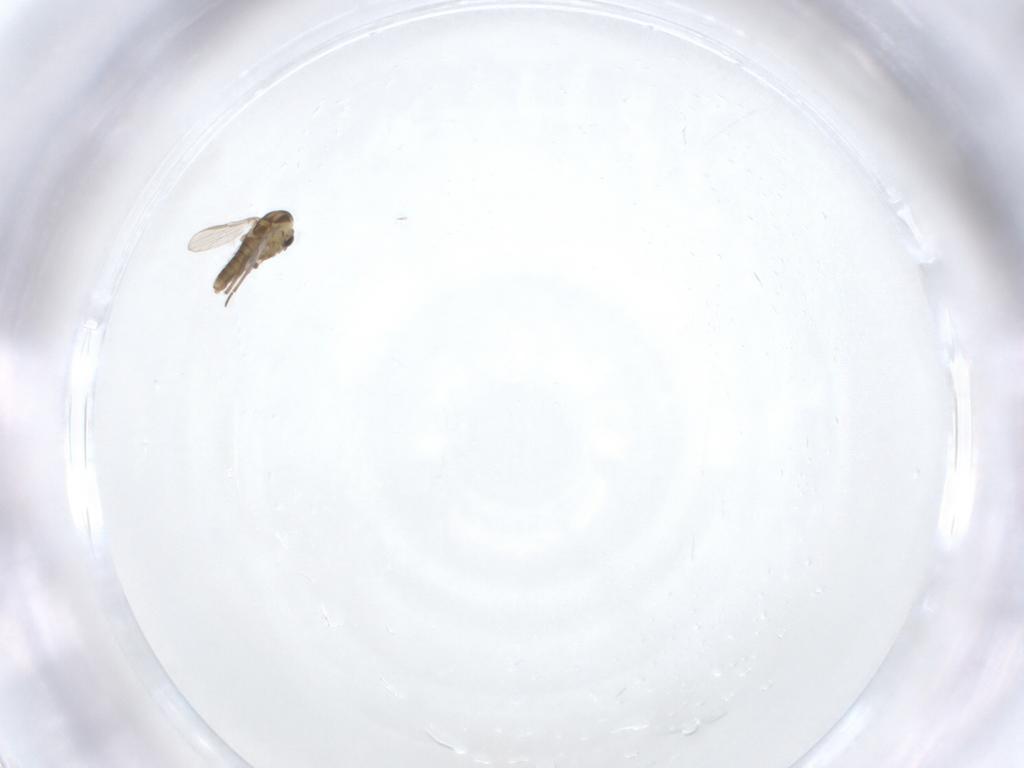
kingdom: Animalia
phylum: Arthropoda
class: Insecta
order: Diptera
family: Chironomidae
